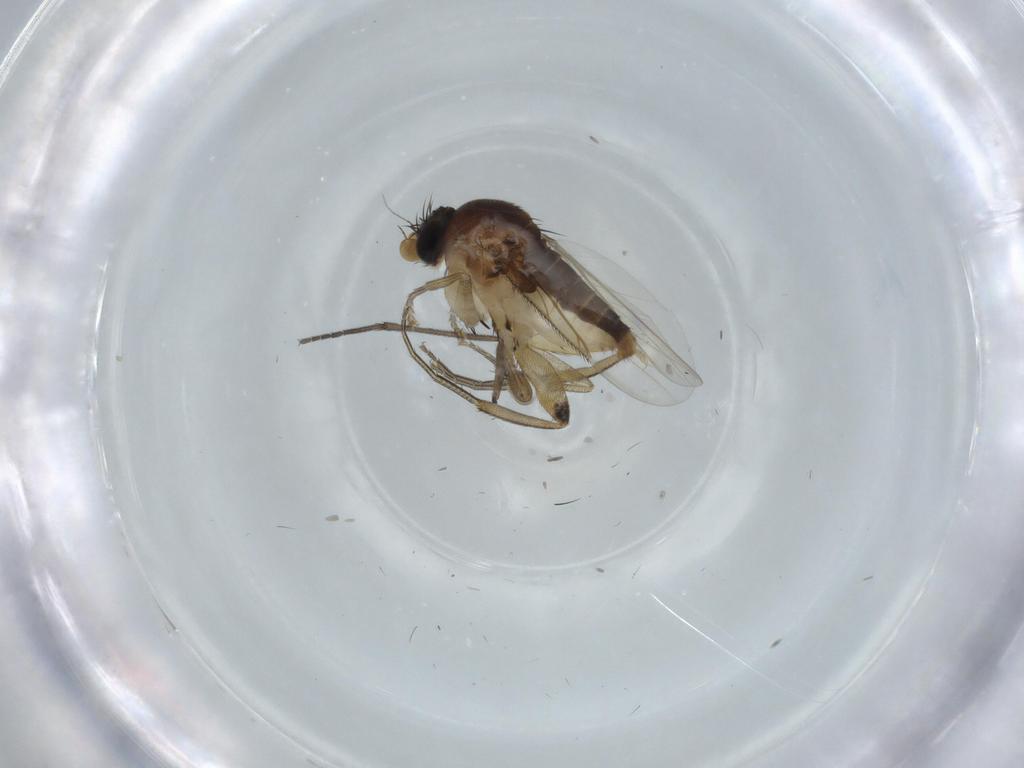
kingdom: Animalia
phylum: Arthropoda
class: Insecta
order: Diptera
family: Phoridae
